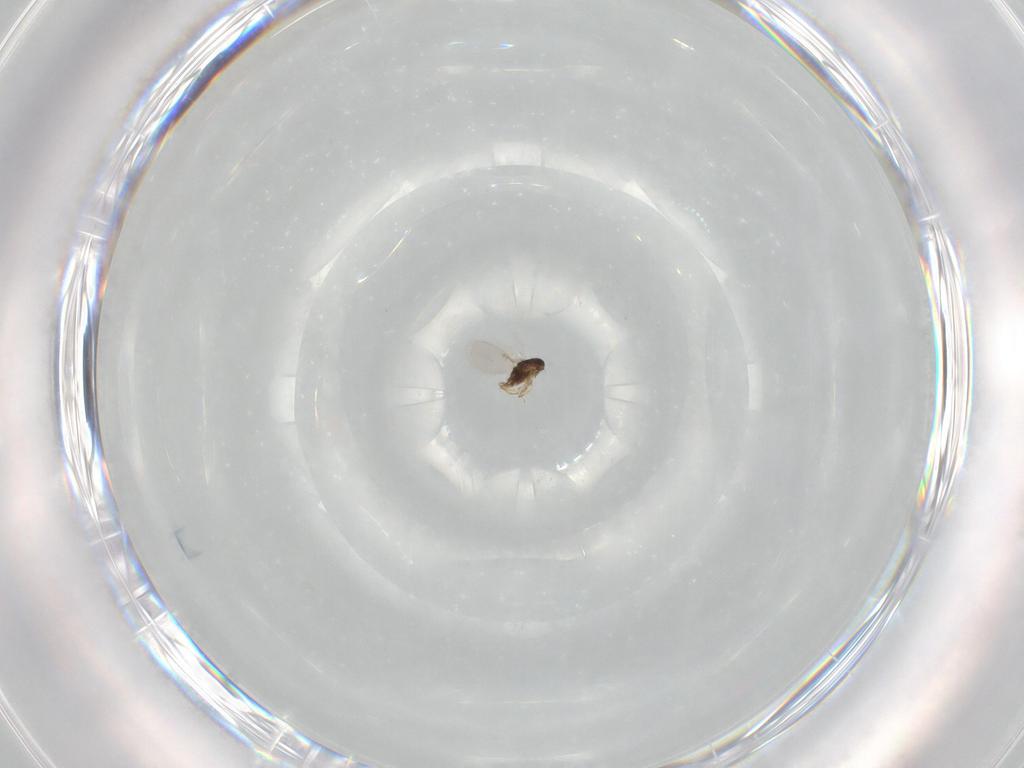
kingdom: Animalia
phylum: Arthropoda
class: Insecta
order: Hymenoptera
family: Encyrtidae
